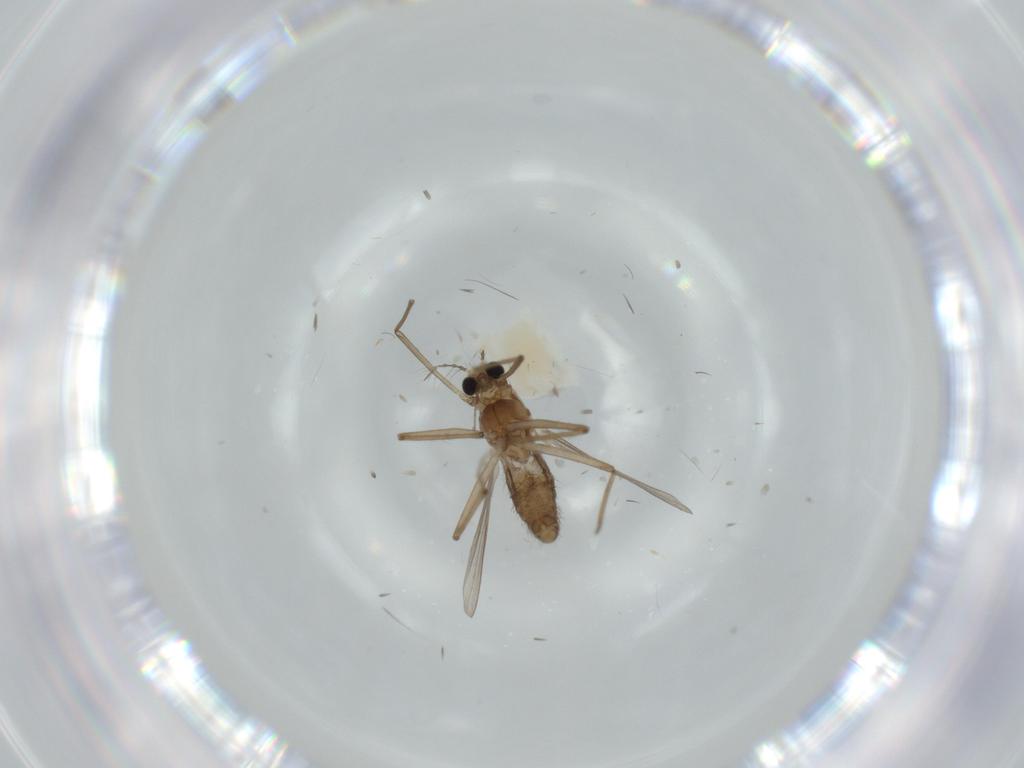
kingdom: Animalia
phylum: Arthropoda
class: Insecta
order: Diptera
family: Chironomidae
